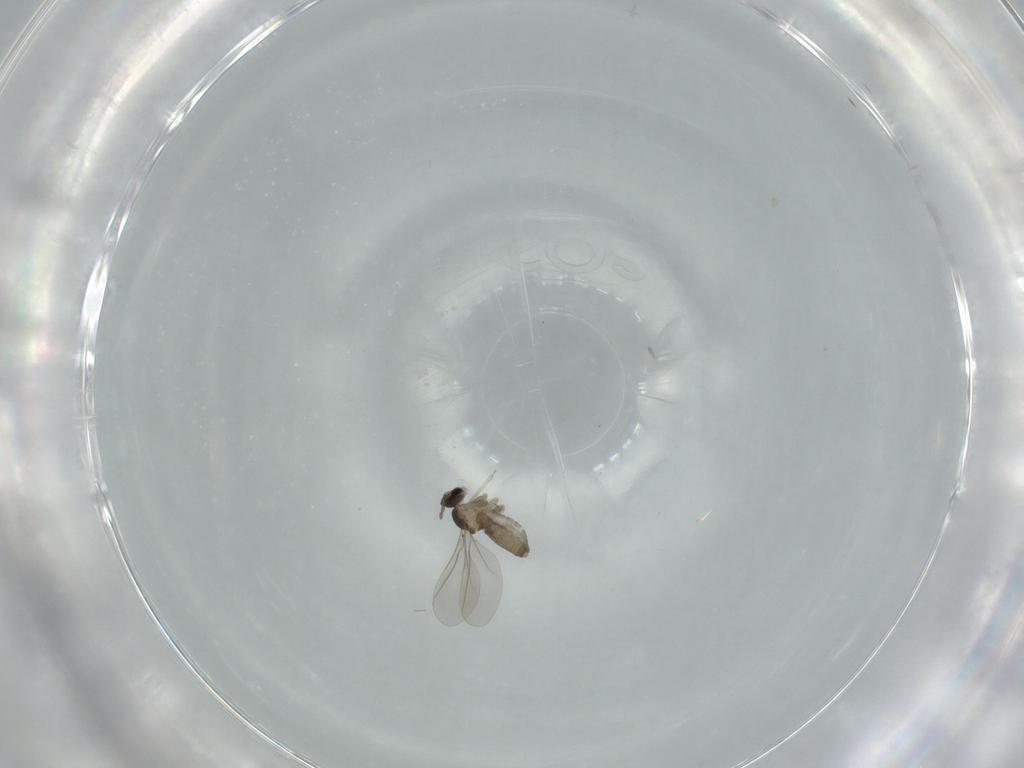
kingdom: Animalia
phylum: Arthropoda
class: Insecta
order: Diptera
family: Cecidomyiidae
